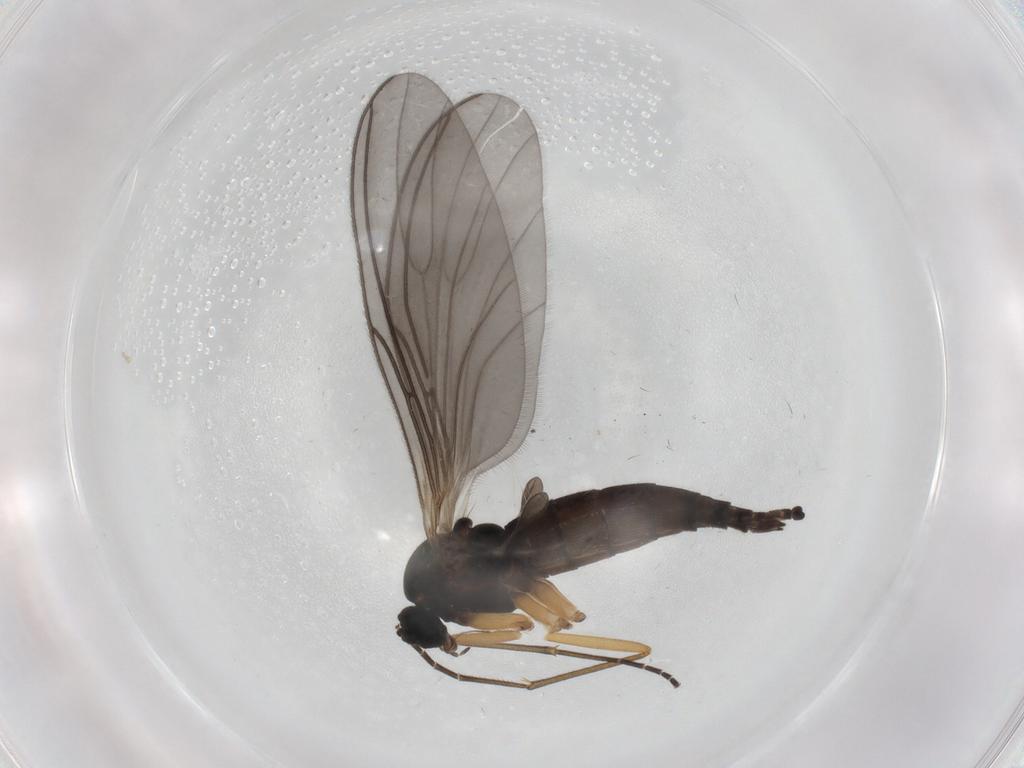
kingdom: Animalia
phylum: Arthropoda
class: Insecta
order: Diptera
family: Sciaridae
